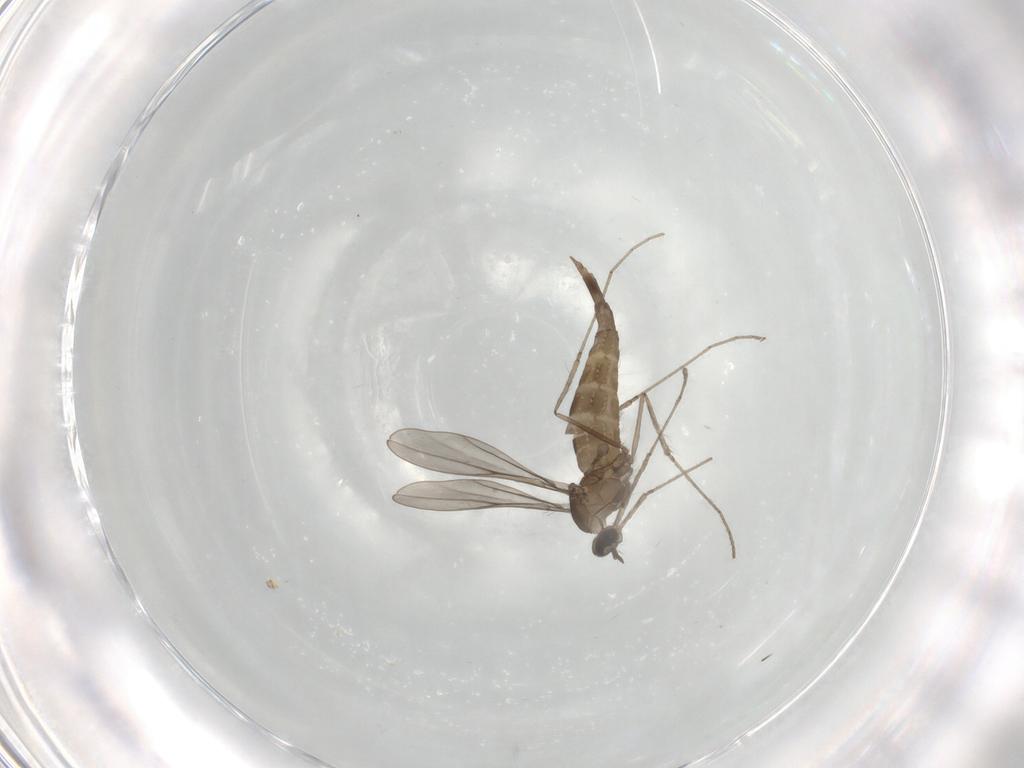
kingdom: Animalia
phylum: Arthropoda
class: Insecta
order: Diptera
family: Cecidomyiidae
